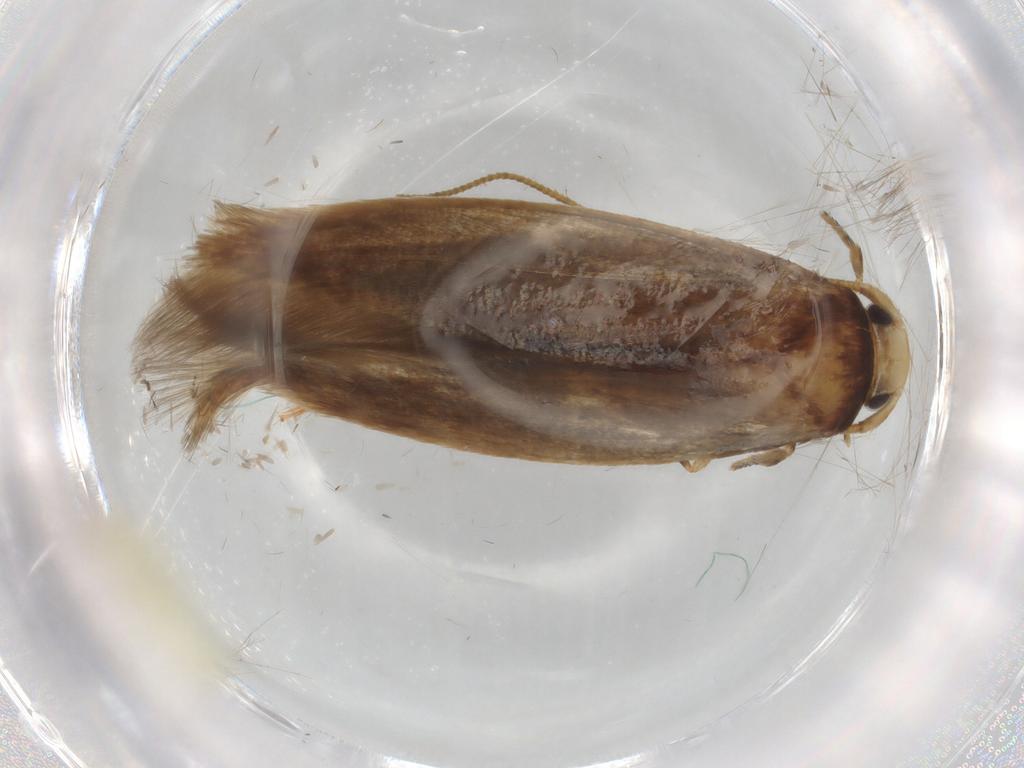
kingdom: Animalia
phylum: Arthropoda
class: Insecta
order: Lepidoptera
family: Tineidae
